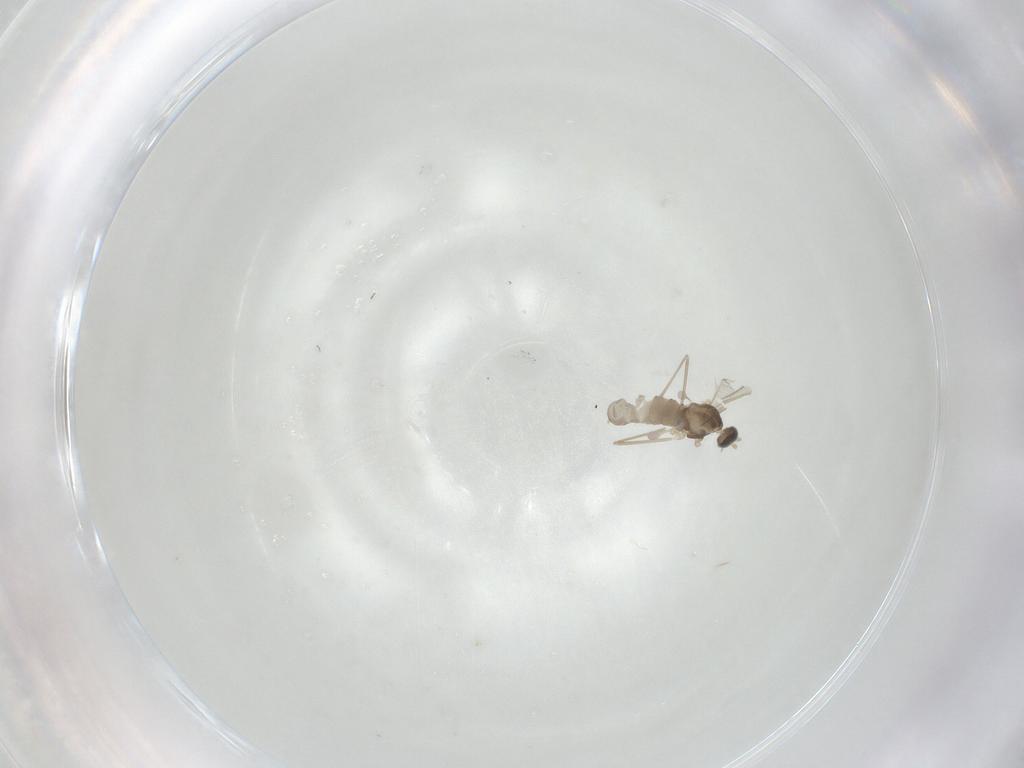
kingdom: Animalia
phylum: Arthropoda
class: Insecta
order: Diptera
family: Cecidomyiidae
